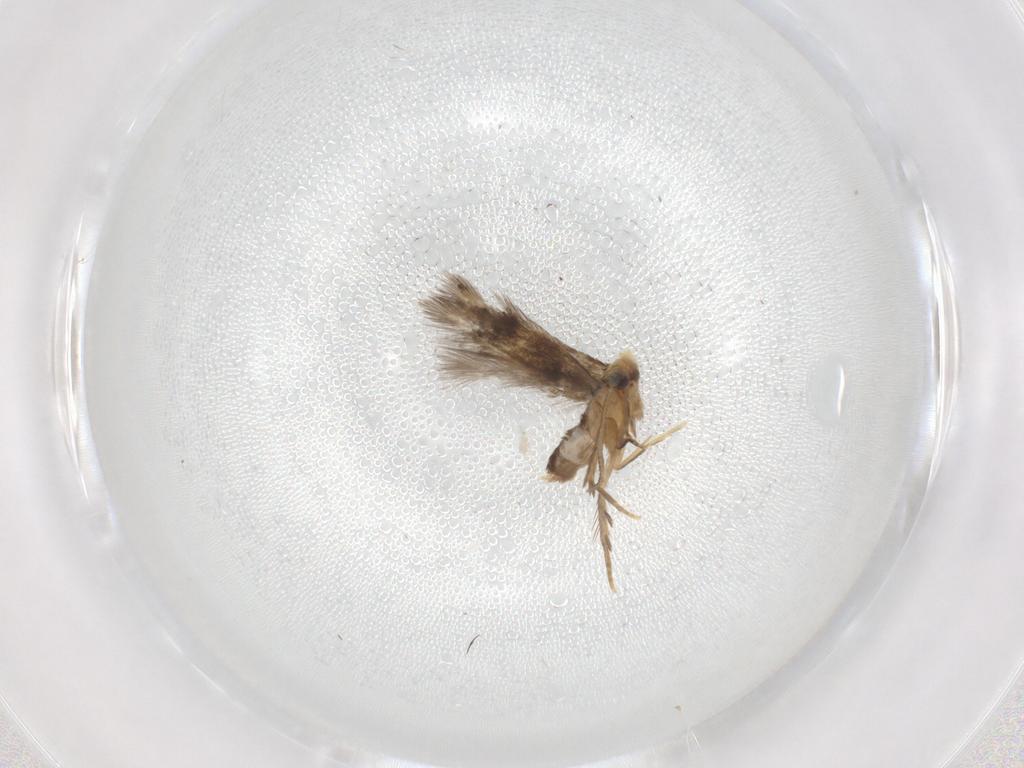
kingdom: Animalia
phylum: Arthropoda
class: Insecta
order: Lepidoptera
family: Nepticulidae
